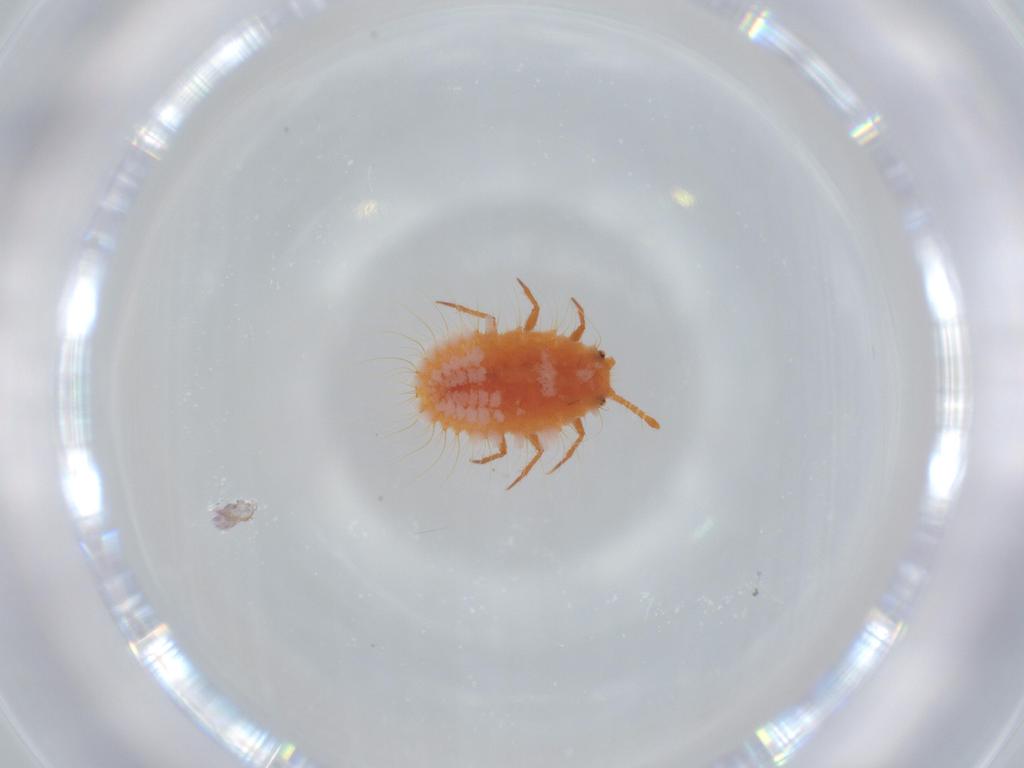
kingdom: Animalia
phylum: Arthropoda
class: Insecta
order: Hemiptera
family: Coccoidea_incertae_sedis
